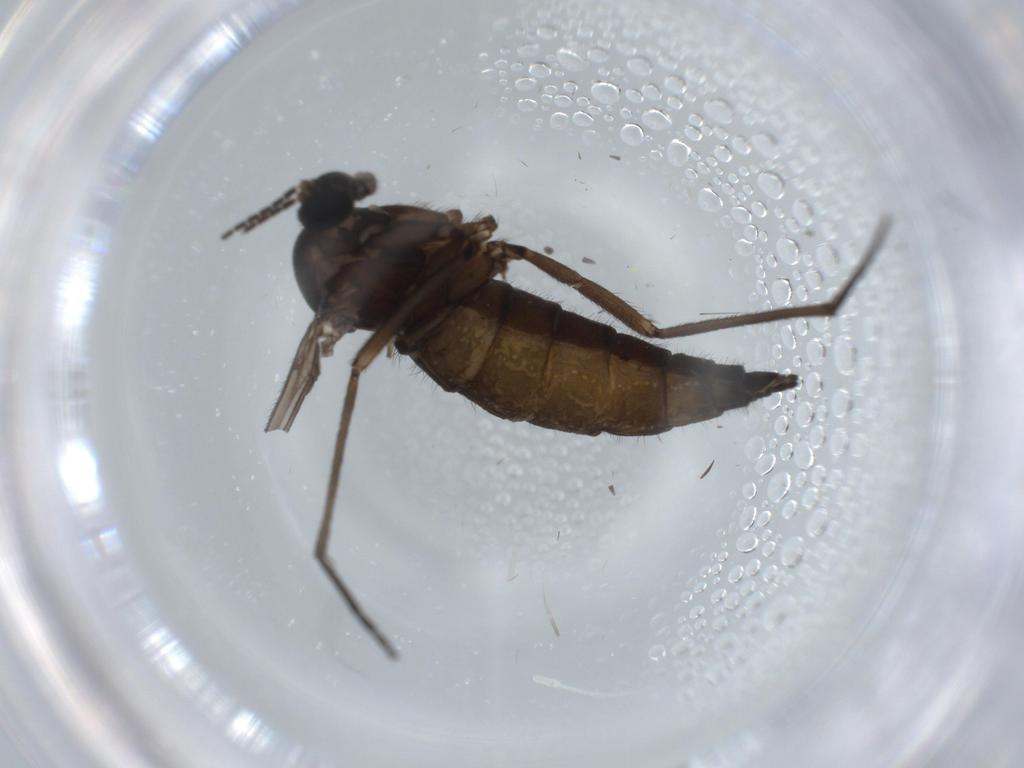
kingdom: Animalia
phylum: Arthropoda
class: Insecta
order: Diptera
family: Sciaridae
